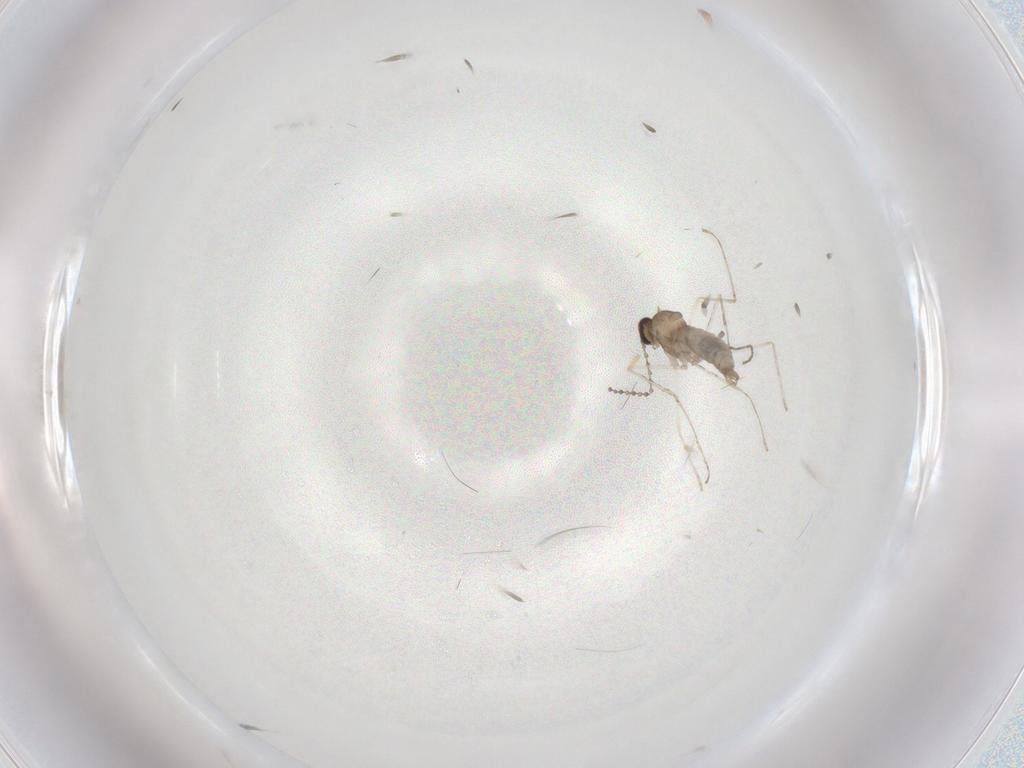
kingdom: Animalia
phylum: Arthropoda
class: Insecta
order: Diptera
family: Cecidomyiidae
